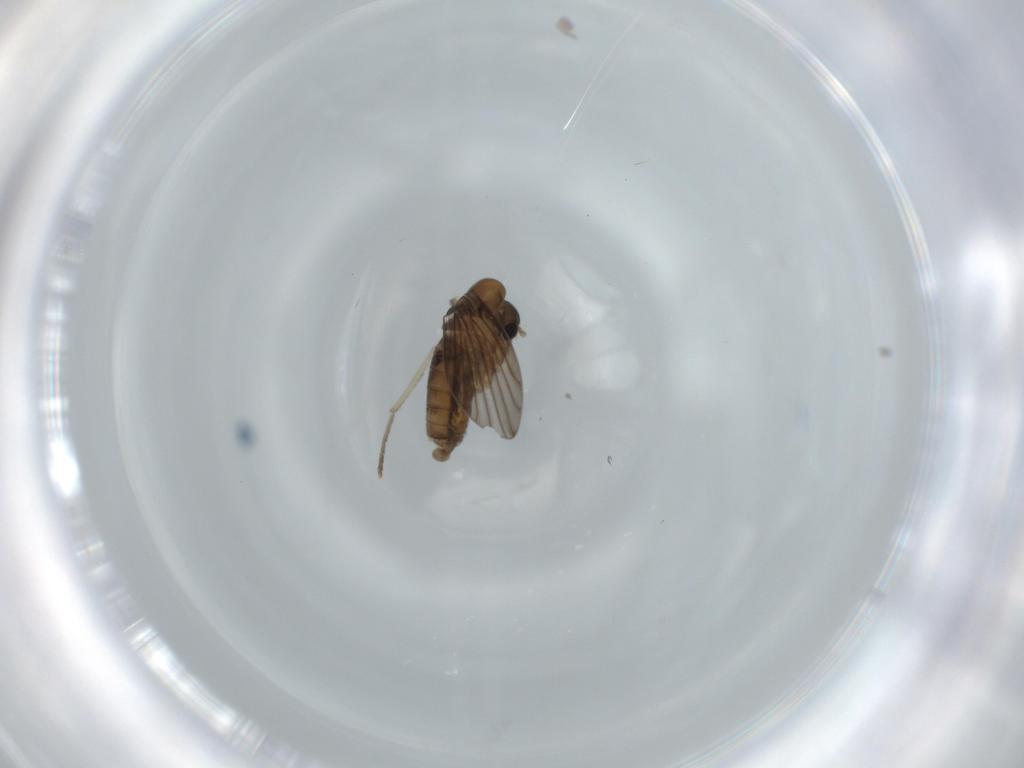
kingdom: Animalia
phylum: Arthropoda
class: Insecta
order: Diptera
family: Psychodidae
